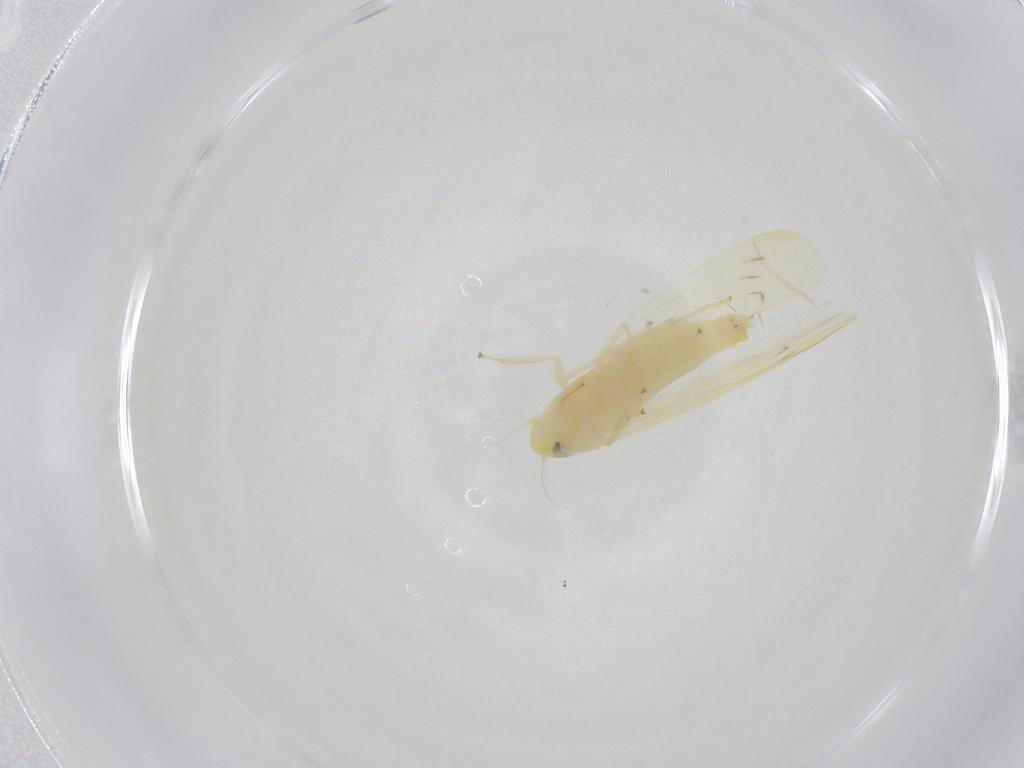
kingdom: Animalia
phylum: Arthropoda
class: Insecta
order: Hemiptera
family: Cicadellidae
